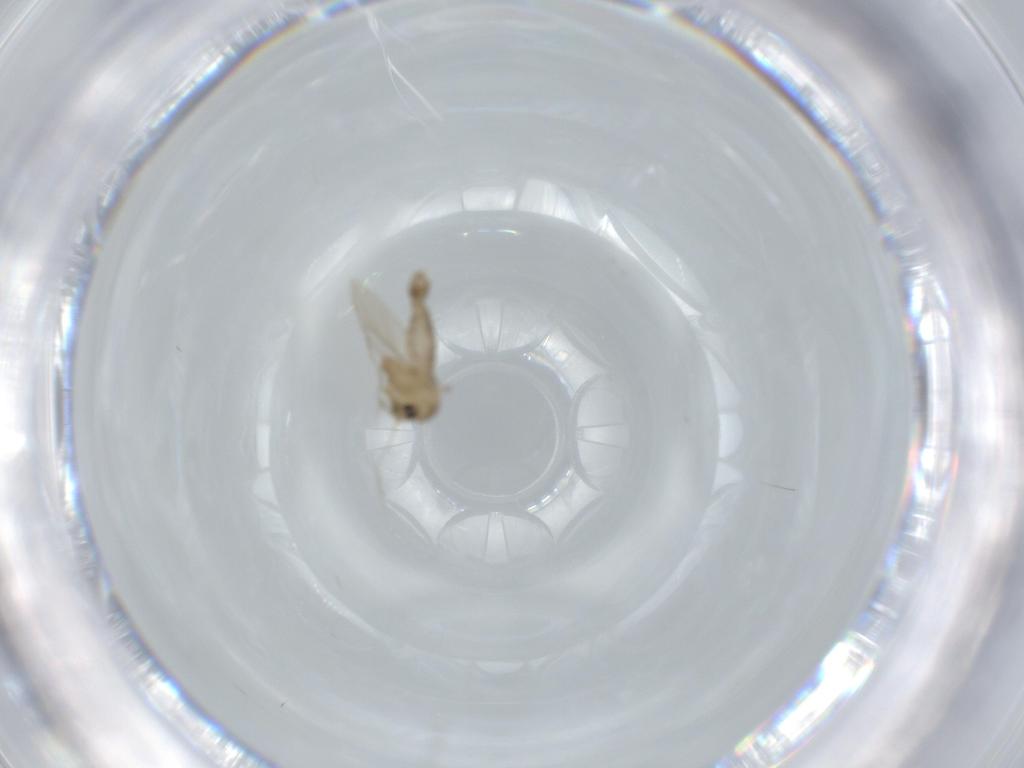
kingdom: Animalia
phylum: Arthropoda
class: Insecta
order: Diptera
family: Psychodidae
